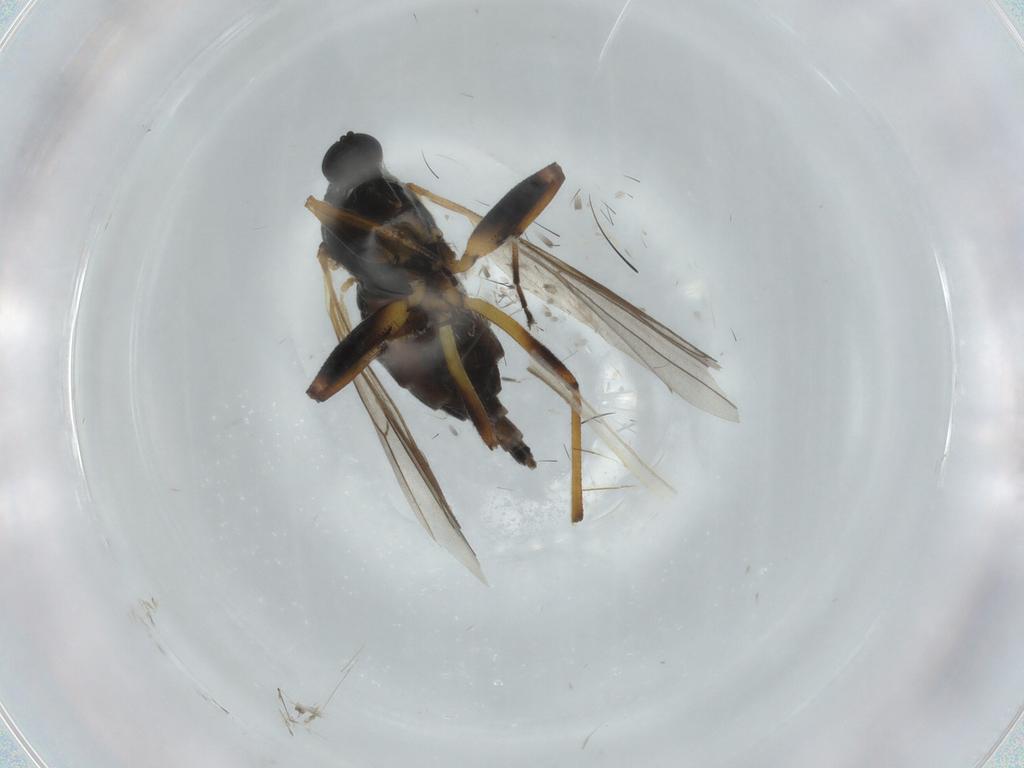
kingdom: Animalia
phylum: Arthropoda
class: Insecta
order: Diptera
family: Hybotidae
